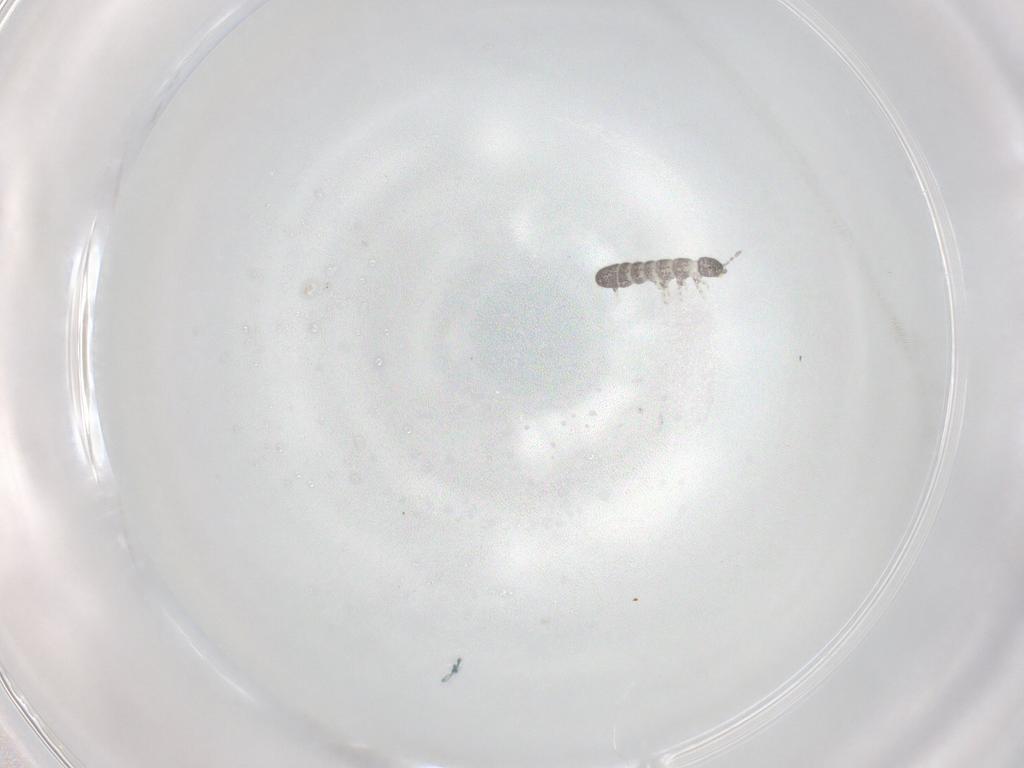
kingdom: Animalia
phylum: Arthropoda
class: Collembola
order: Entomobryomorpha
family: Isotomidae
